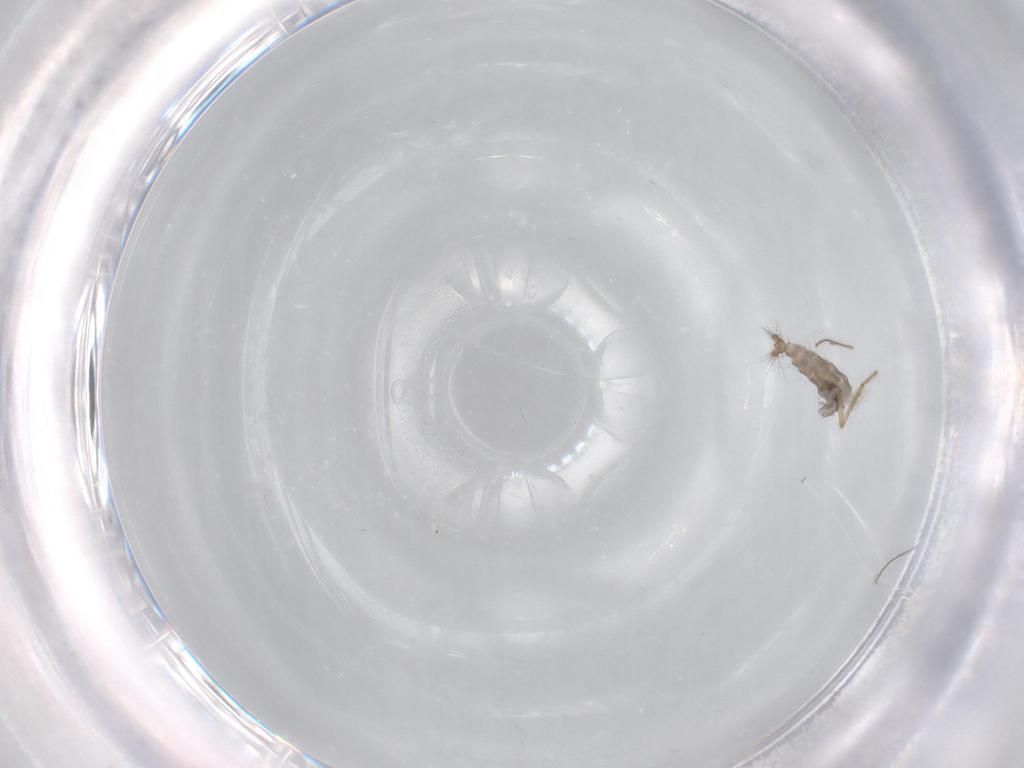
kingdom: Animalia
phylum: Arthropoda
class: Insecta
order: Diptera
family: Ceratopogonidae
